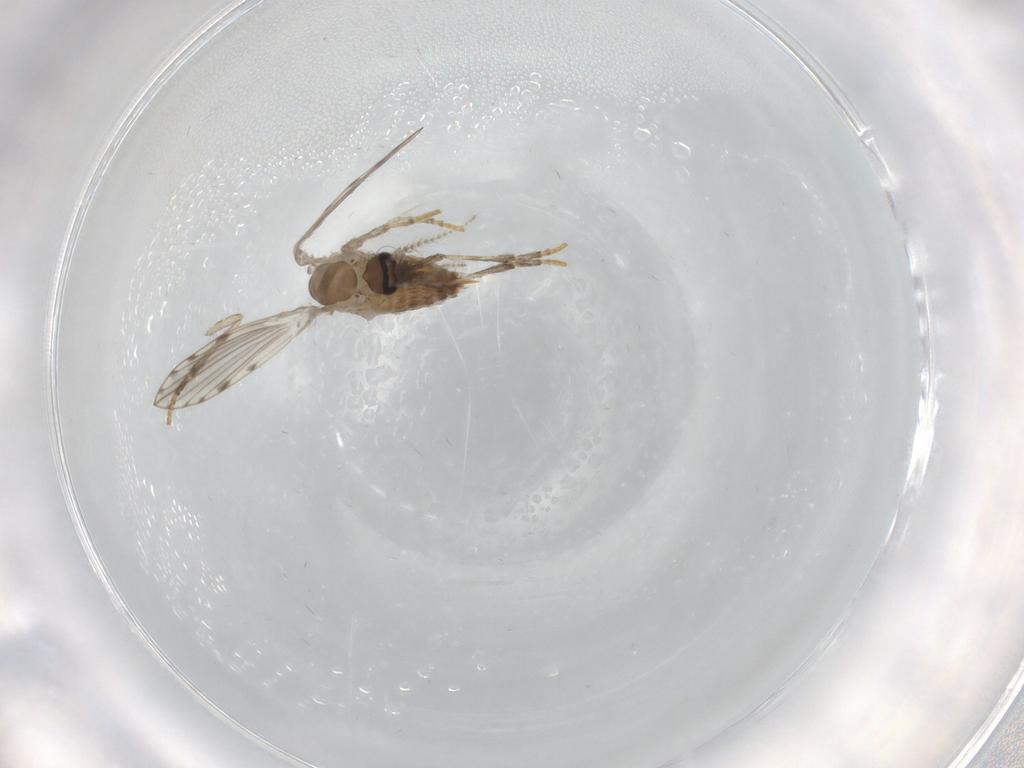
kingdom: Animalia
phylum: Arthropoda
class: Insecta
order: Diptera
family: Psychodidae
